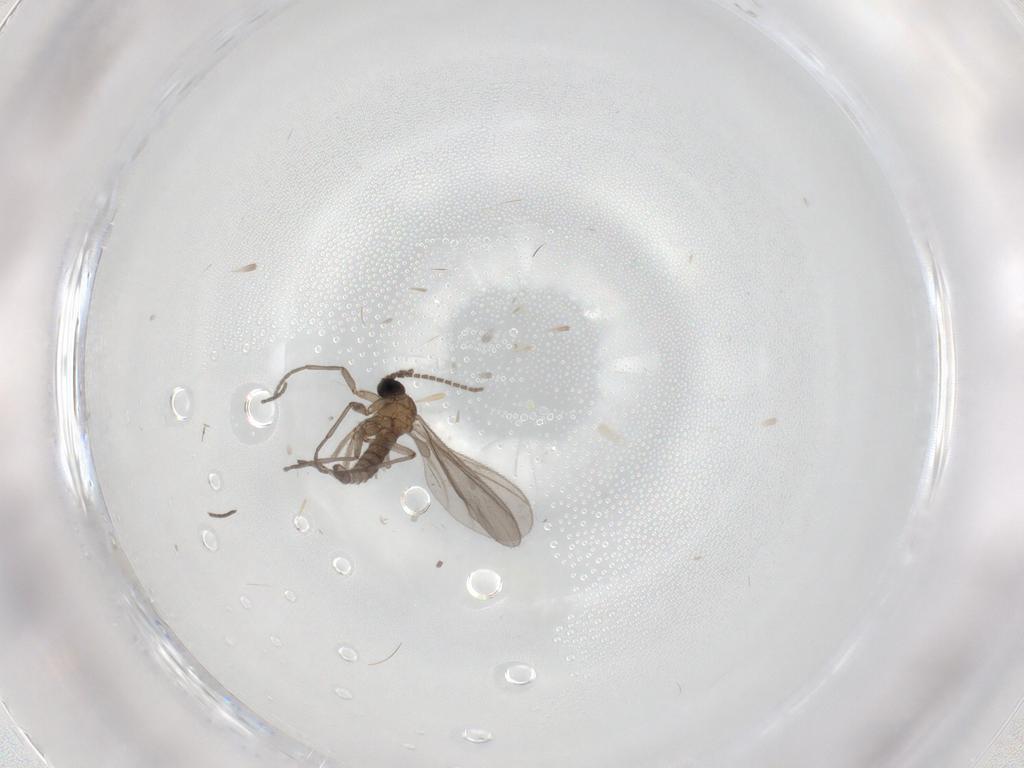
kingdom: Animalia
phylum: Arthropoda
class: Insecta
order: Diptera
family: Sciaridae
